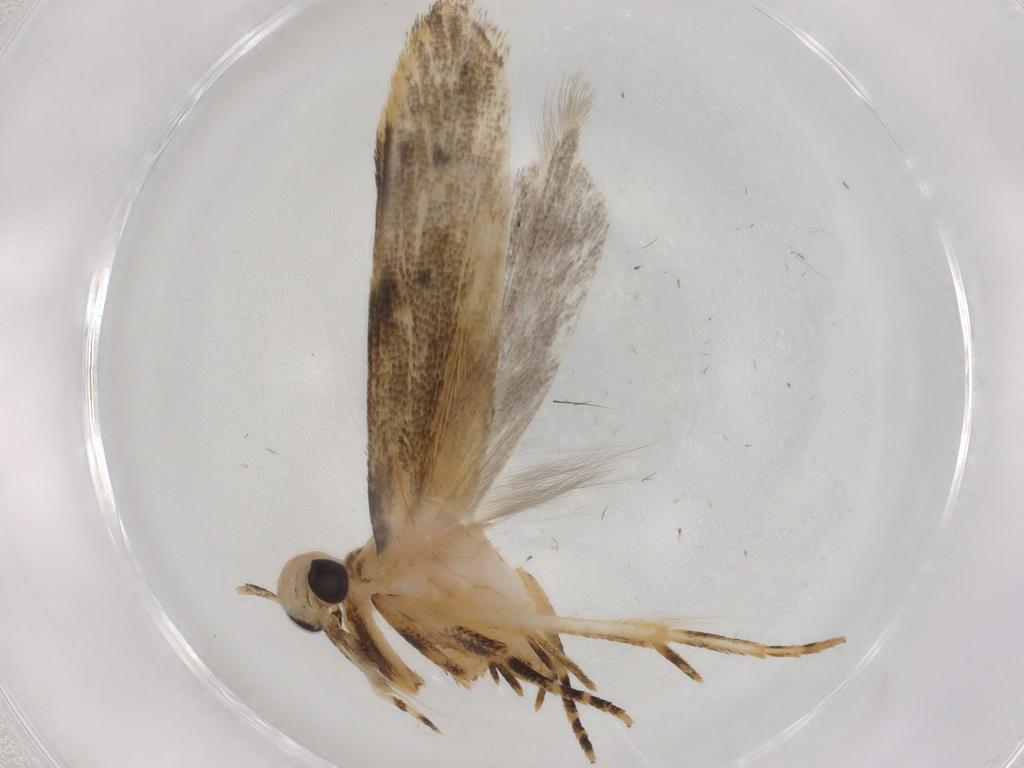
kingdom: Animalia
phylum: Arthropoda
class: Insecta
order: Lepidoptera
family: Gelechiidae
